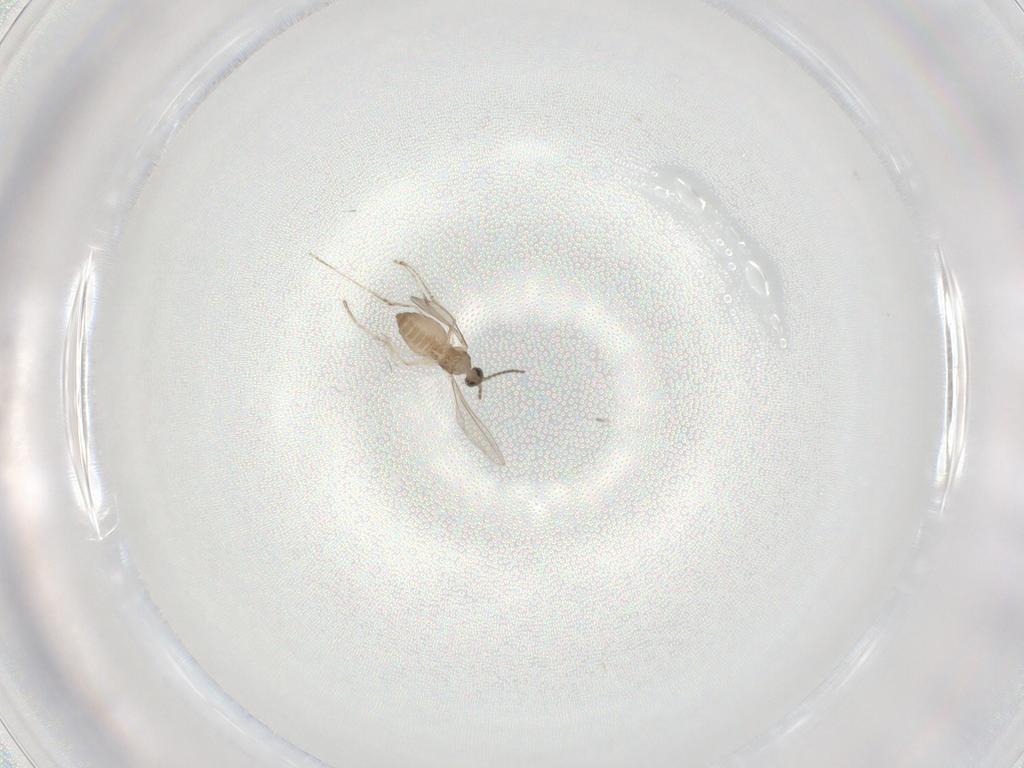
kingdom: Animalia
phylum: Arthropoda
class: Insecta
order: Diptera
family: Cecidomyiidae
